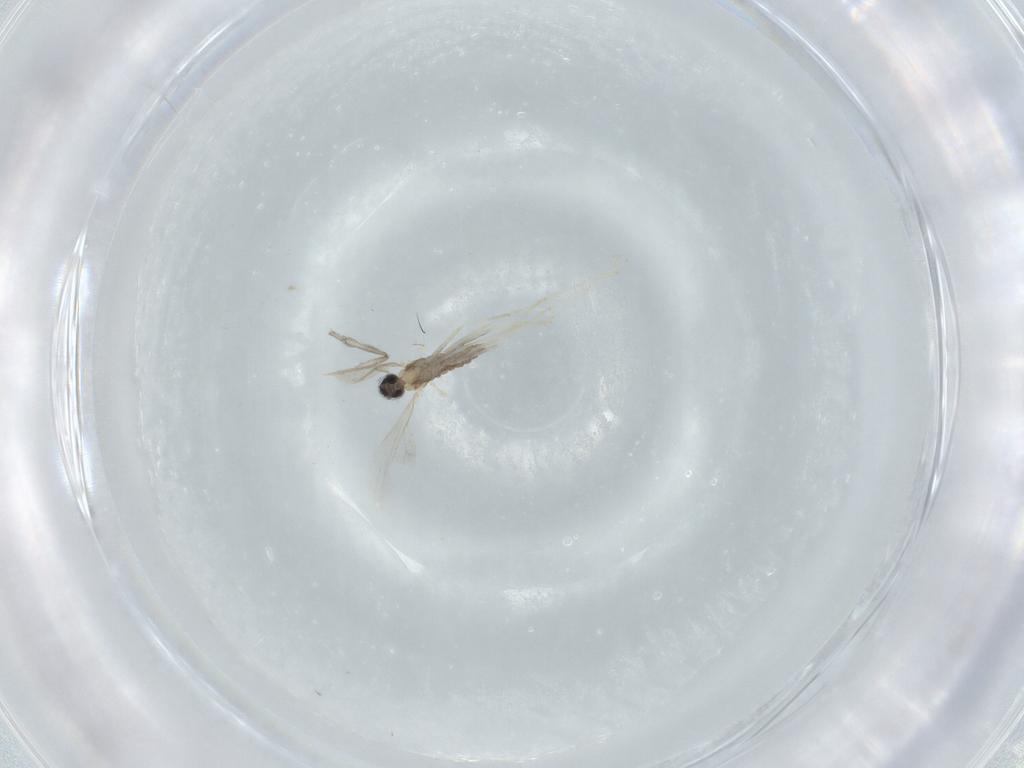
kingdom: Animalia
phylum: Arthropoda
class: Insecta
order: Diptera
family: Cecidomyiidae
